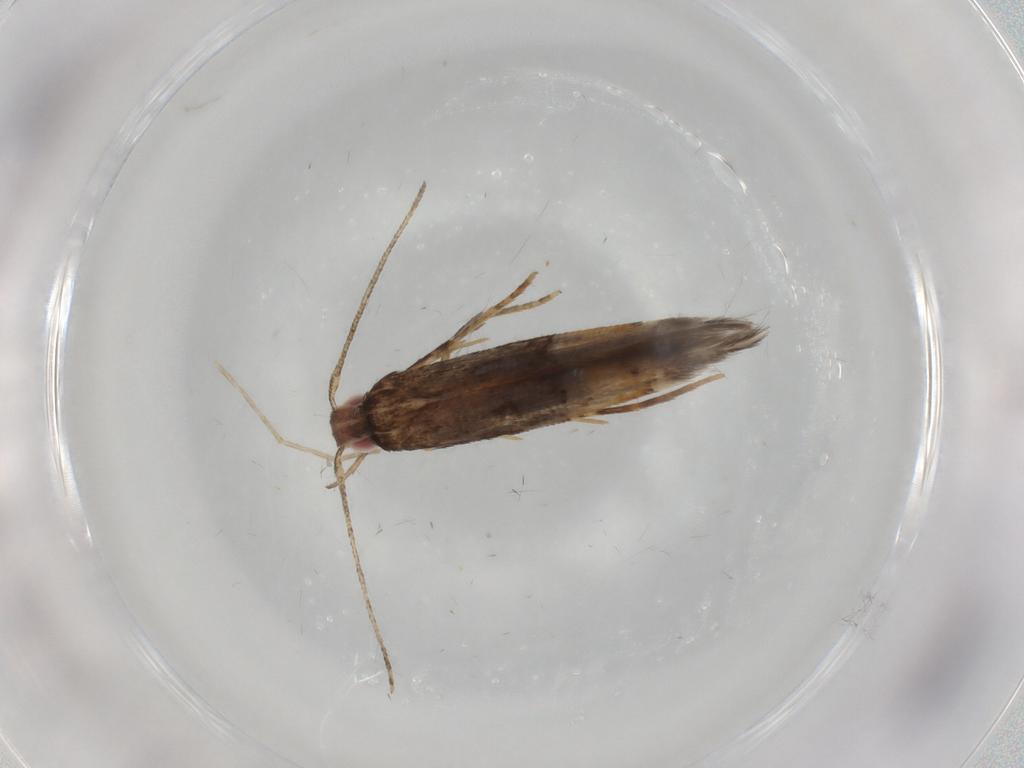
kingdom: Animalia
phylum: Arthropoda
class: Insecta
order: Lepidoptera
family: Cosmopterigidae
